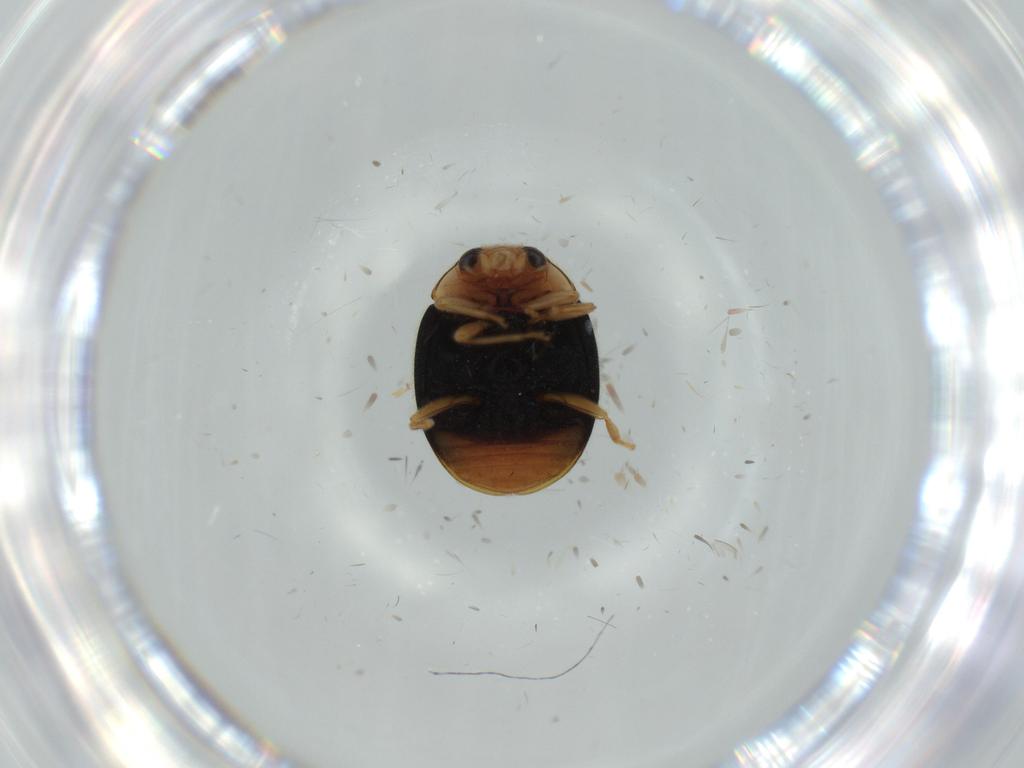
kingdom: Animalia
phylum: Arthropoda
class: Insecta
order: Coleoptera
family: Coccinellidae
